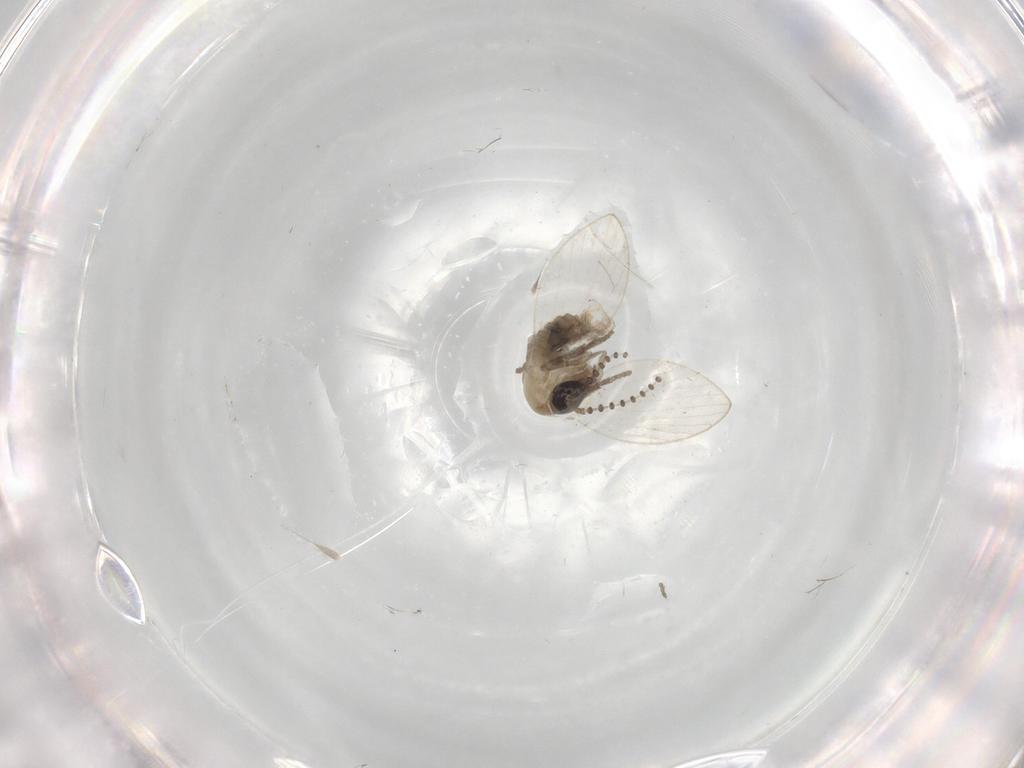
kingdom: Animalia
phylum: Arthropoda
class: Insecta
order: Diptera
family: Psychodidae
